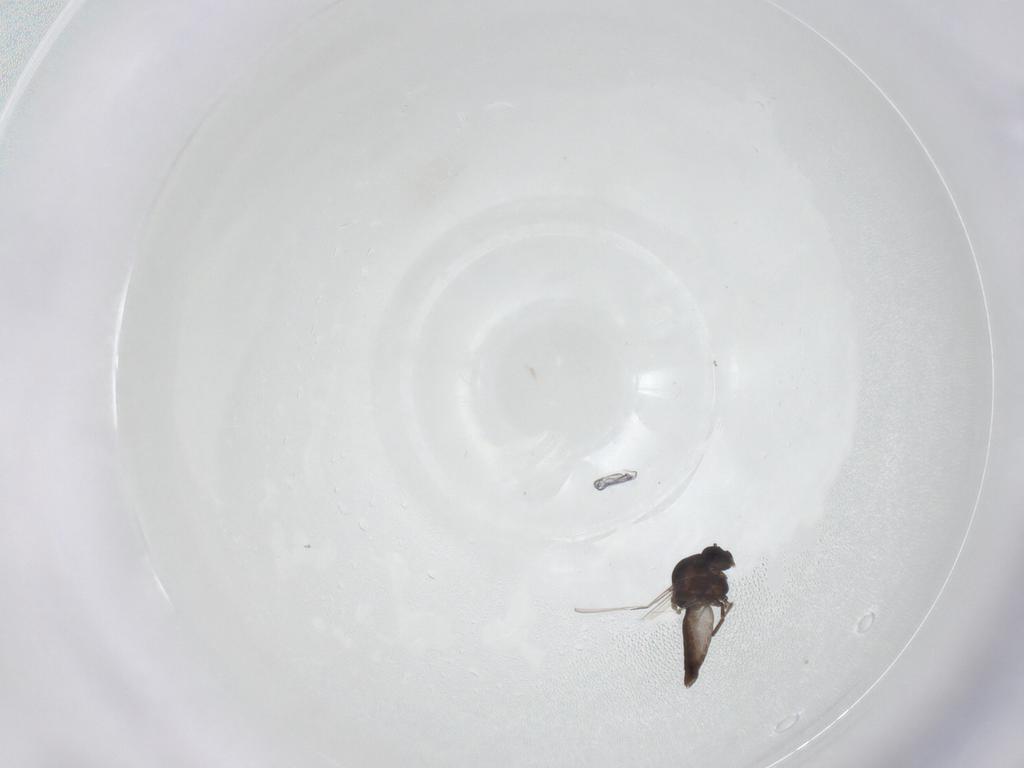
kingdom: Animalia
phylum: Arthropoda
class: Insecta
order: Diptera
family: Ceratopogonidae
